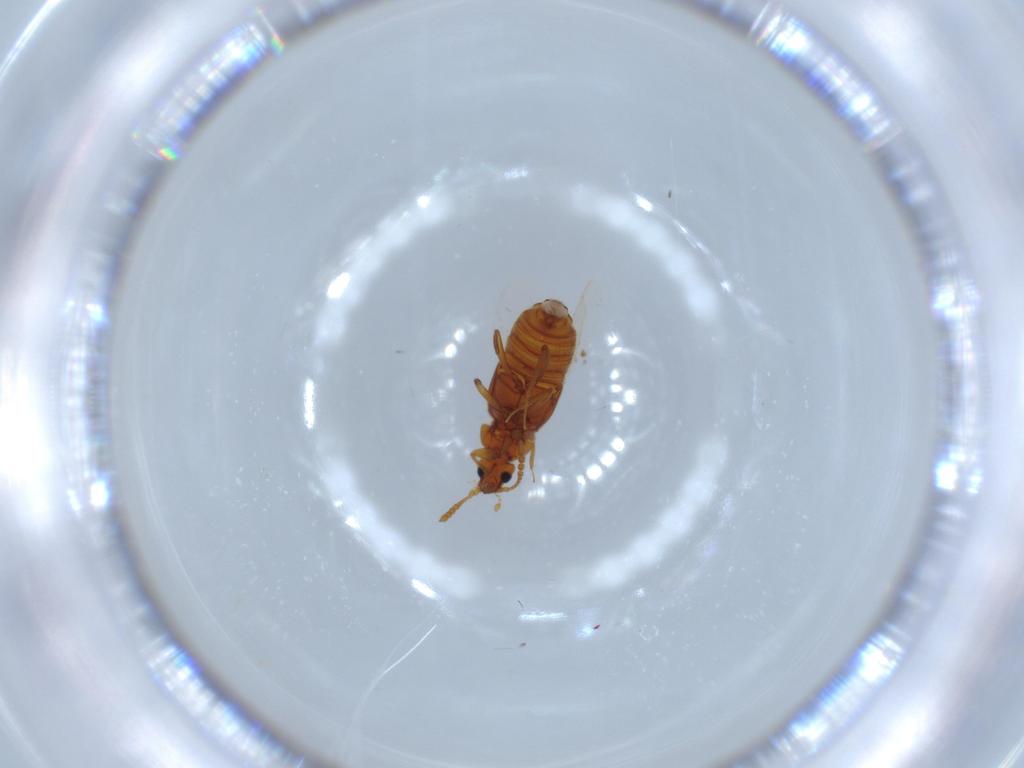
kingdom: Animalia
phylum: Arthropoda
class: Insecta
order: Coleoptera
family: Staphylinidae
